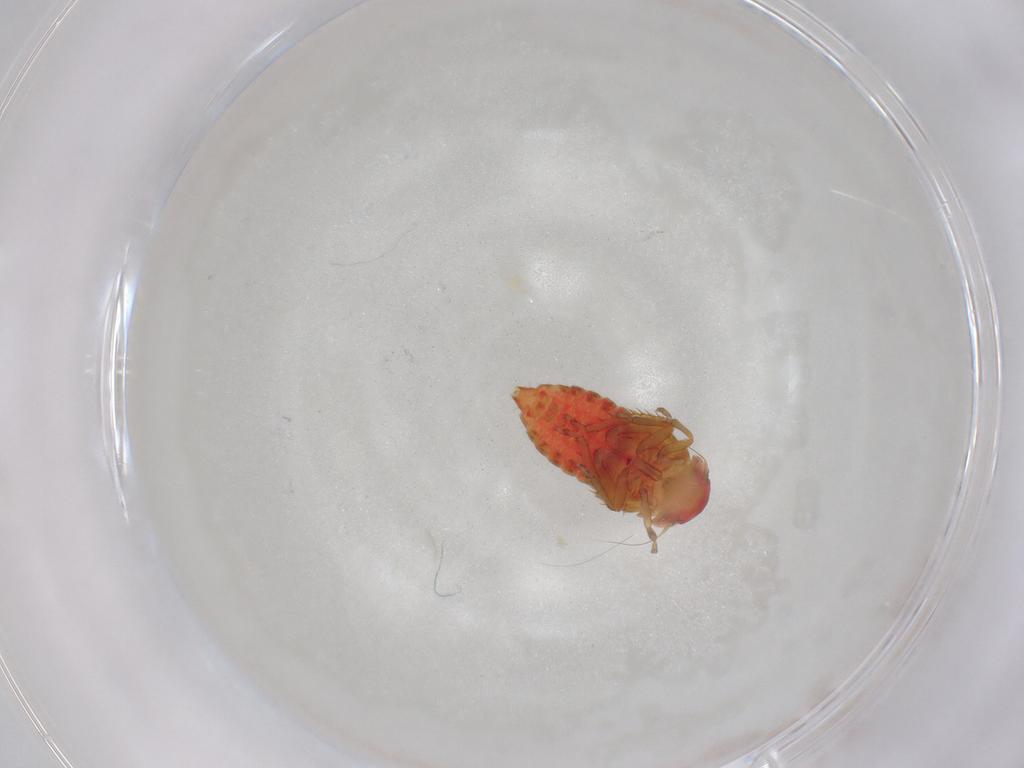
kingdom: Animalia
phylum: Arthropoda
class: Insecta
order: Hemiptera
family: Cicadellidae
